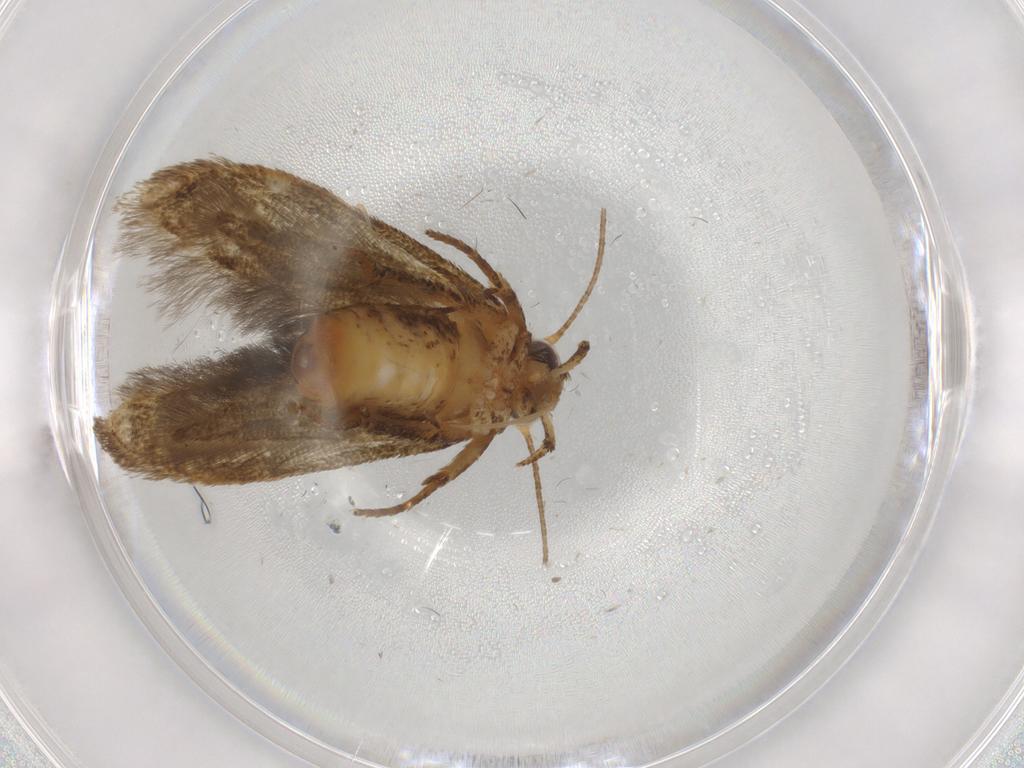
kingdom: Animalia
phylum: Arthropoda
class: Insecta
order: Lepidoptera
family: Blastobasidae
